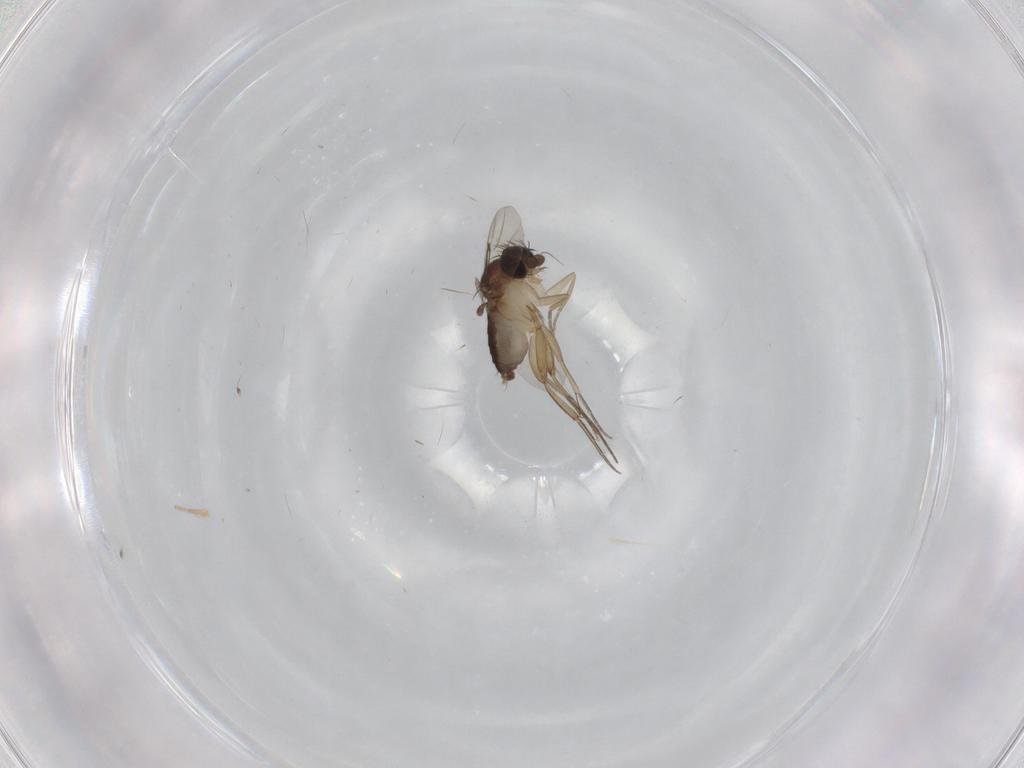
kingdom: Animalia
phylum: Arthropoda
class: Insecta
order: Diptera
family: Phoridae
